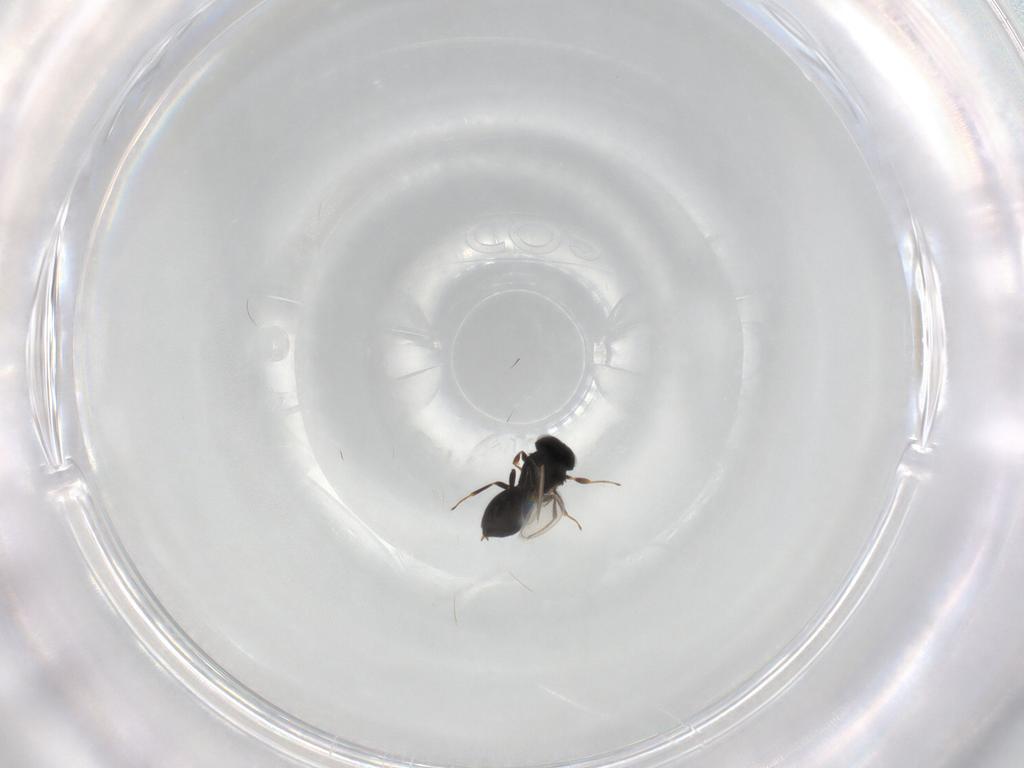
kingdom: Animalia
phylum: Arthropoda
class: Insecta
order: Hymenoptera
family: Scelionidae
